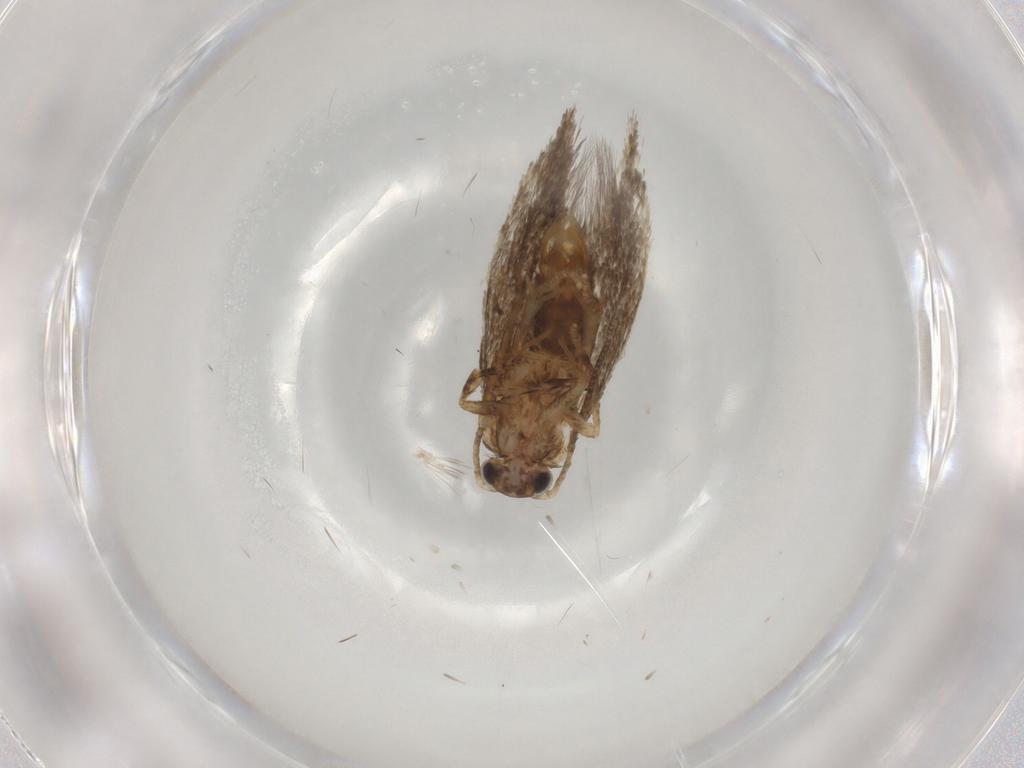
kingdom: Animalia
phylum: Arthropoda
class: Insecta
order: Lepidoptera
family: Tineidae
